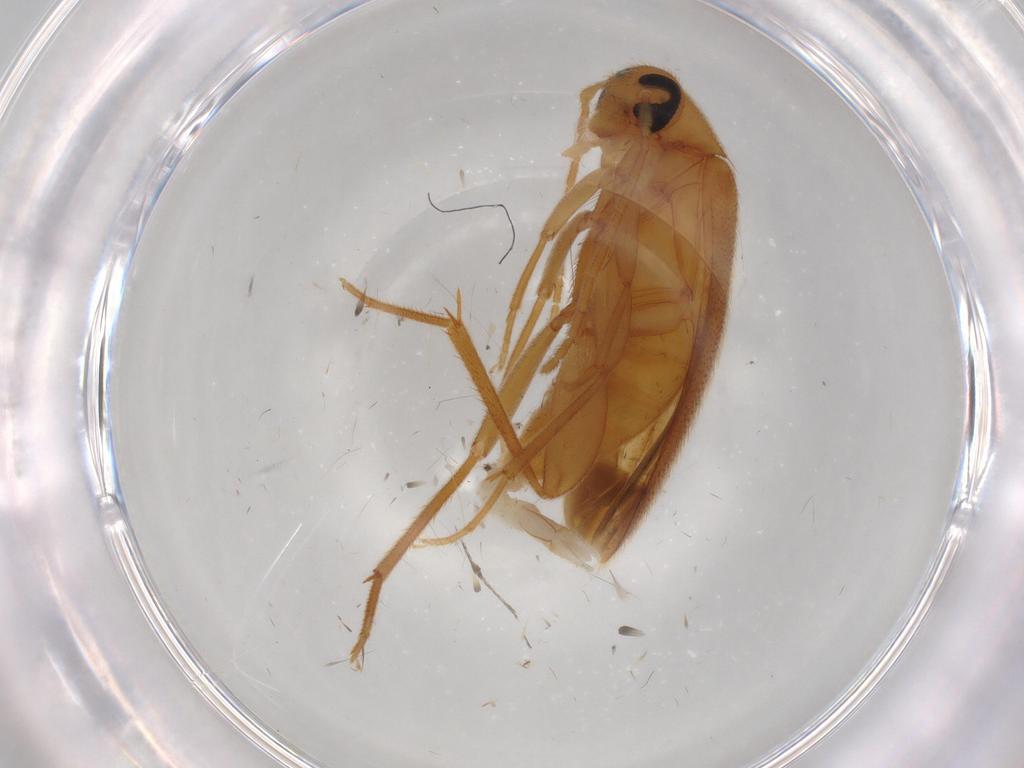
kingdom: Animalia
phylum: Arthropoda
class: Insecta
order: Coleoptera
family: Scraptiidae
